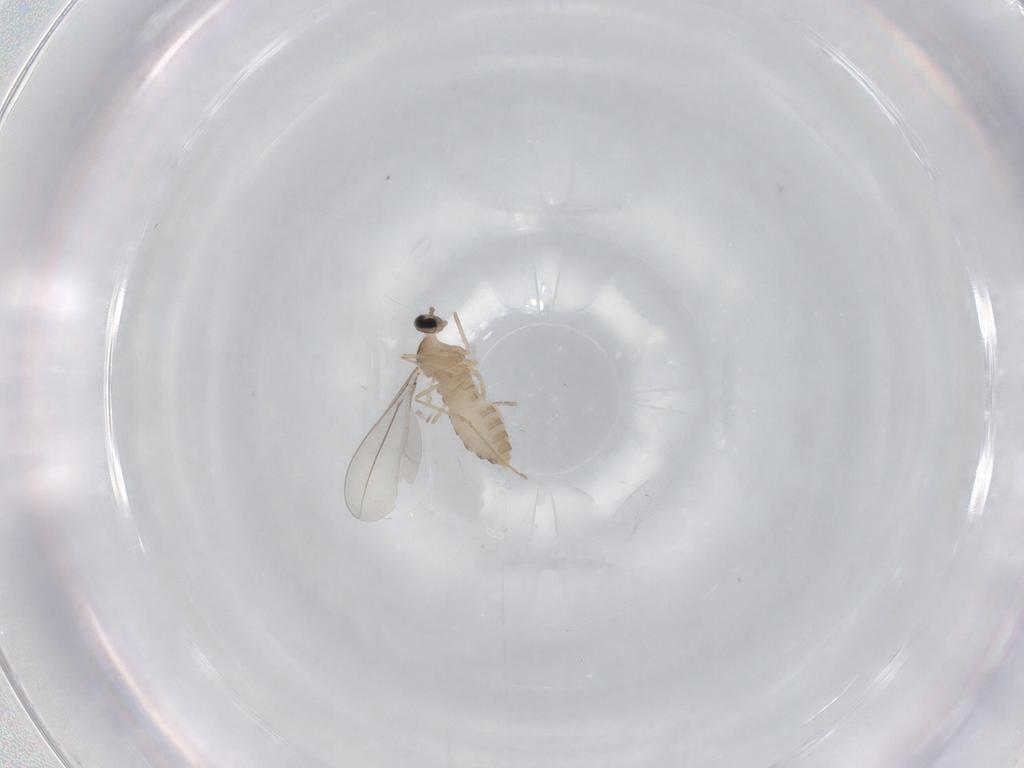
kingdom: Animalia
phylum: Arthropoda
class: Insecta
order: Diptera
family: Cecidomyiidae
